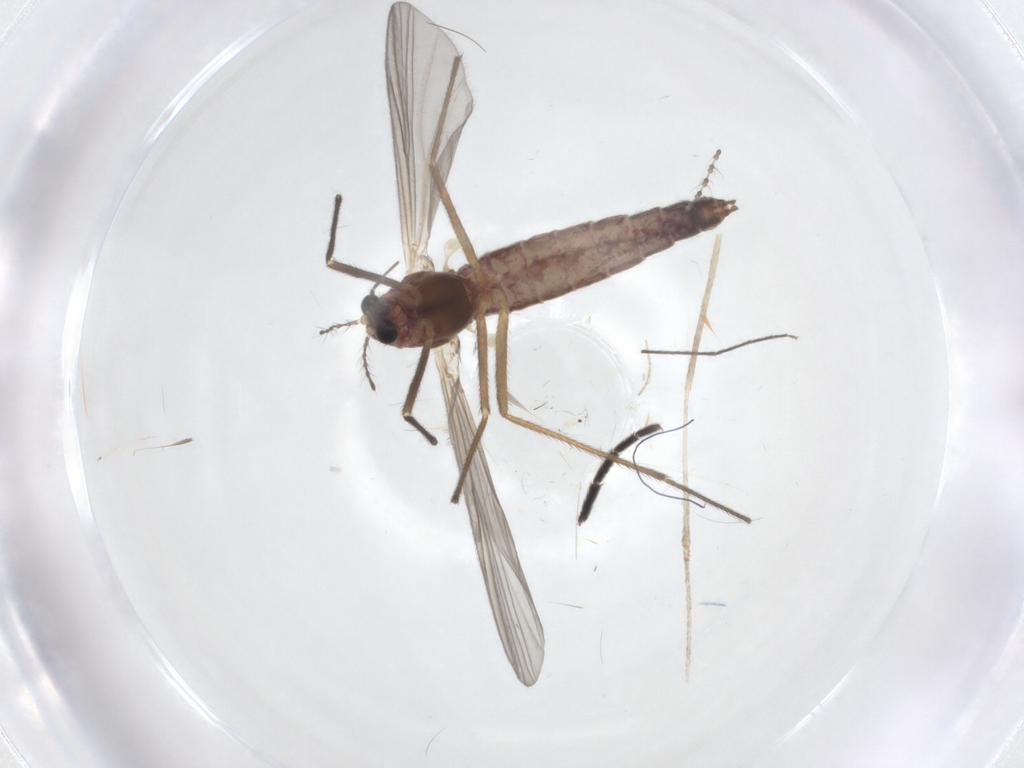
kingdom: Animalia
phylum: Arthropoda
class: Insecta
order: Diptera
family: Chironomidae
